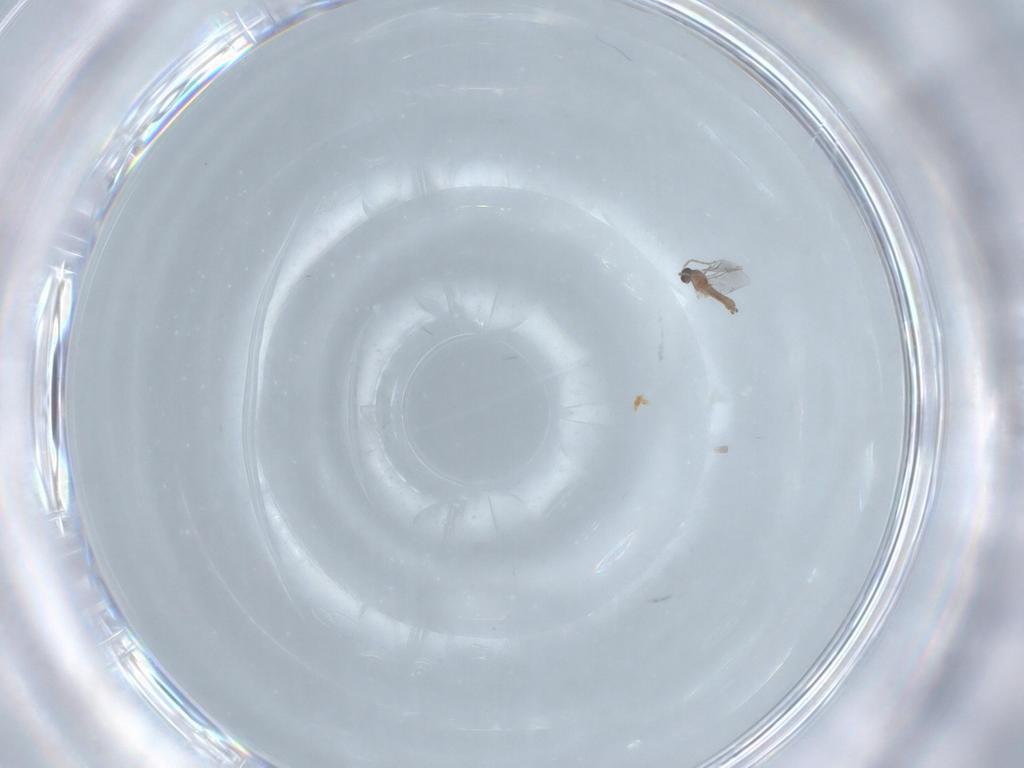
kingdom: Animalia
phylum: Arthropoda
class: Insecta
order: Diptera
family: Cecidomyiidae
